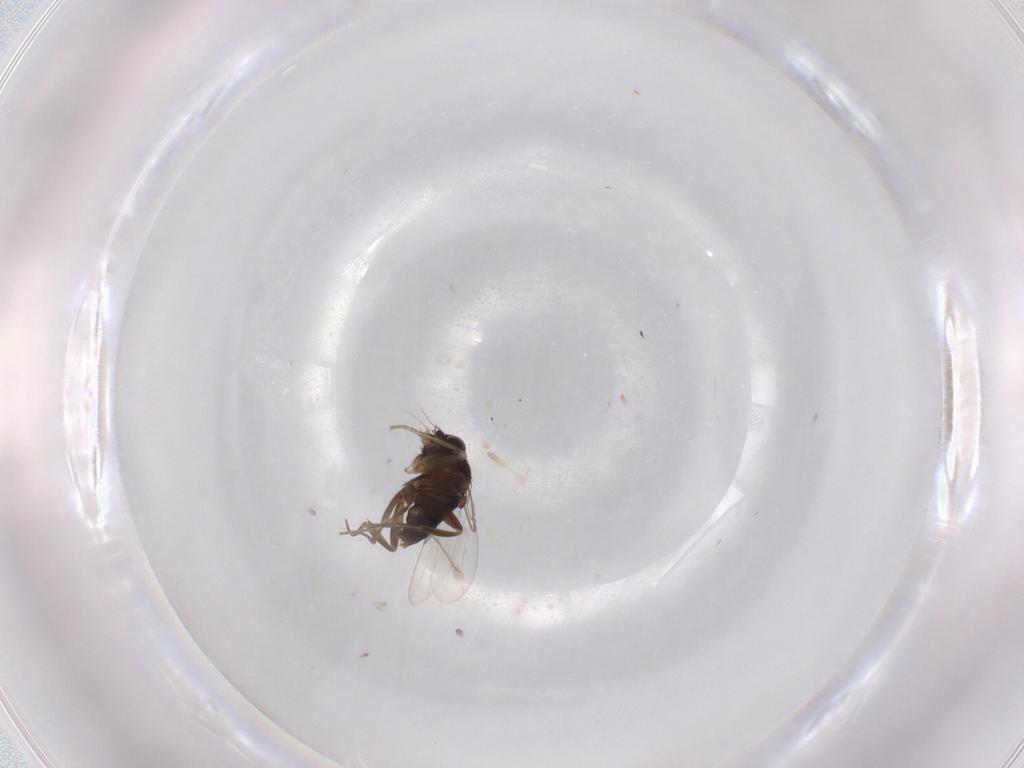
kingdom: Animalia
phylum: Arthropoda
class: Insecta
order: Diptera
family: Phoridae
